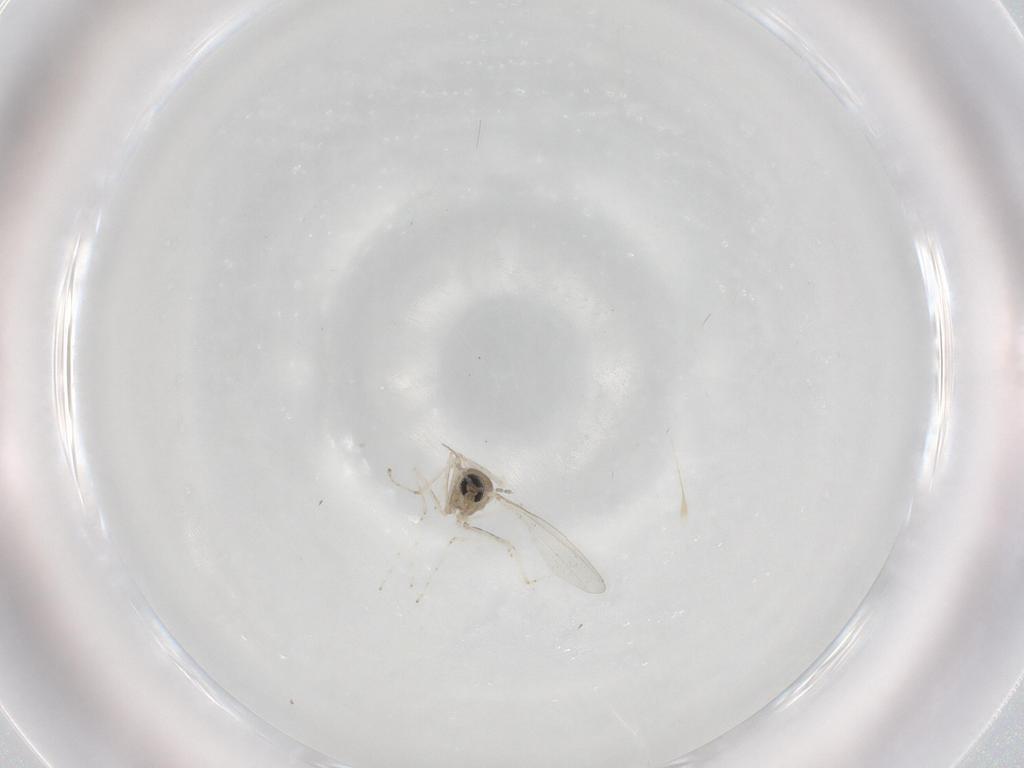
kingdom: Animalia
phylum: Arthropoda
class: Insecta
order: Diptera
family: Cecidomyiidae
